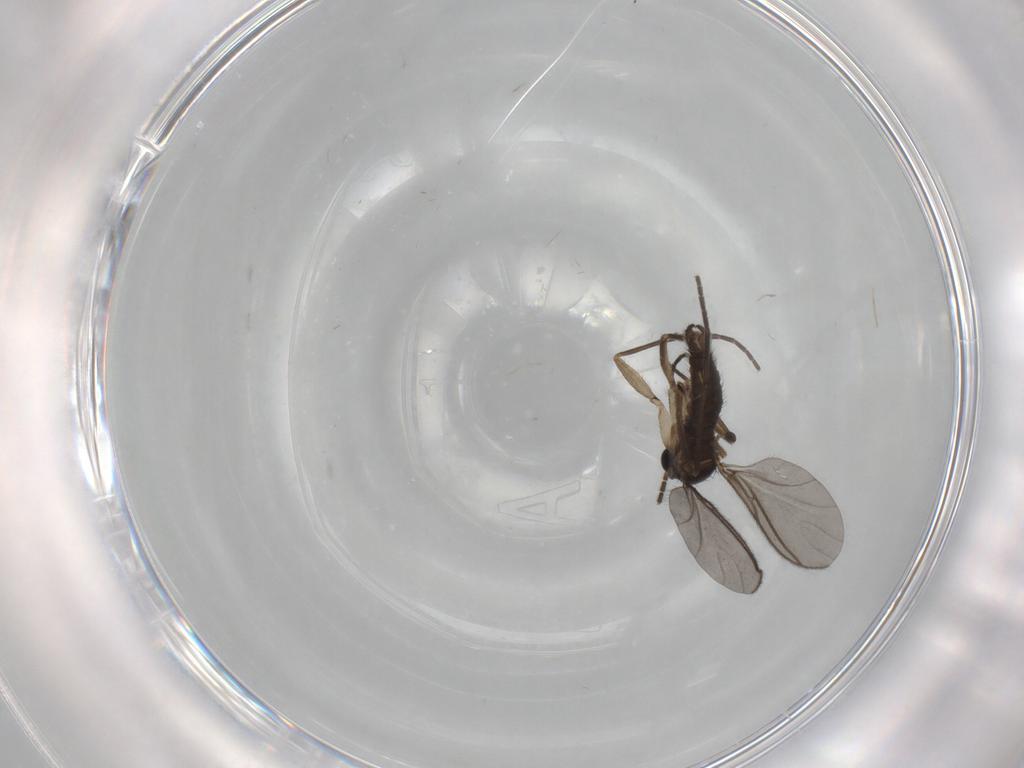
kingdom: Animalia
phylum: Arthropoda
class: Insecta
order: Diptera
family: Sciaridae
